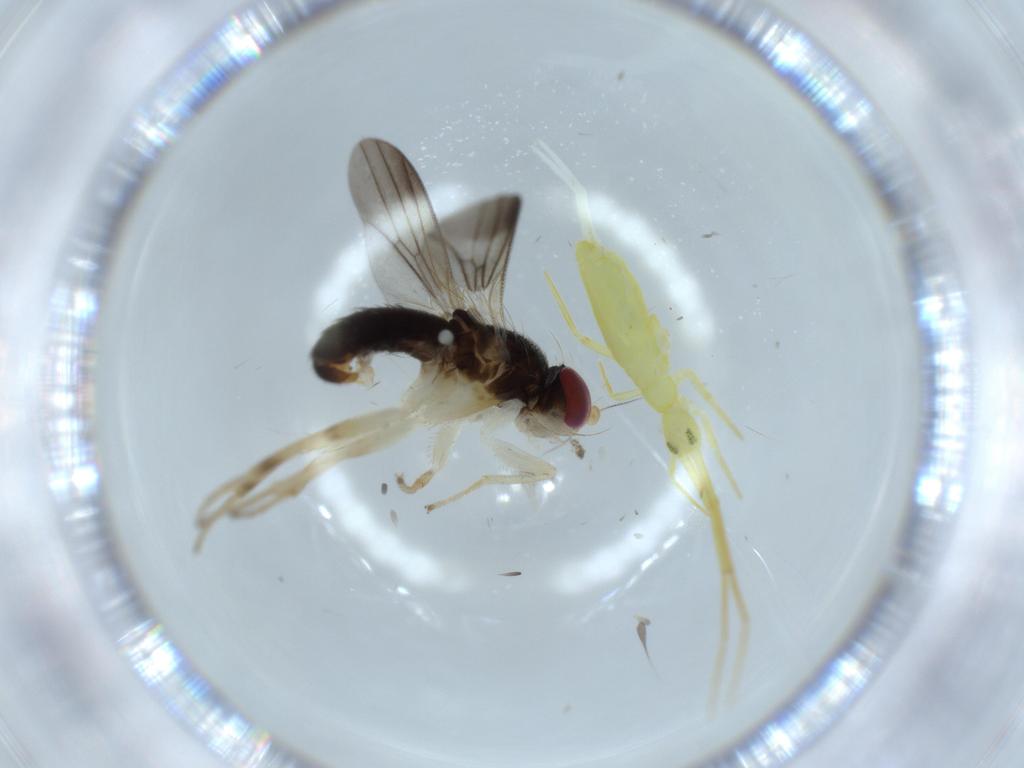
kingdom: Animalia
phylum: Arthropoda
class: Insecta
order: Diptera
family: Clusiidae
